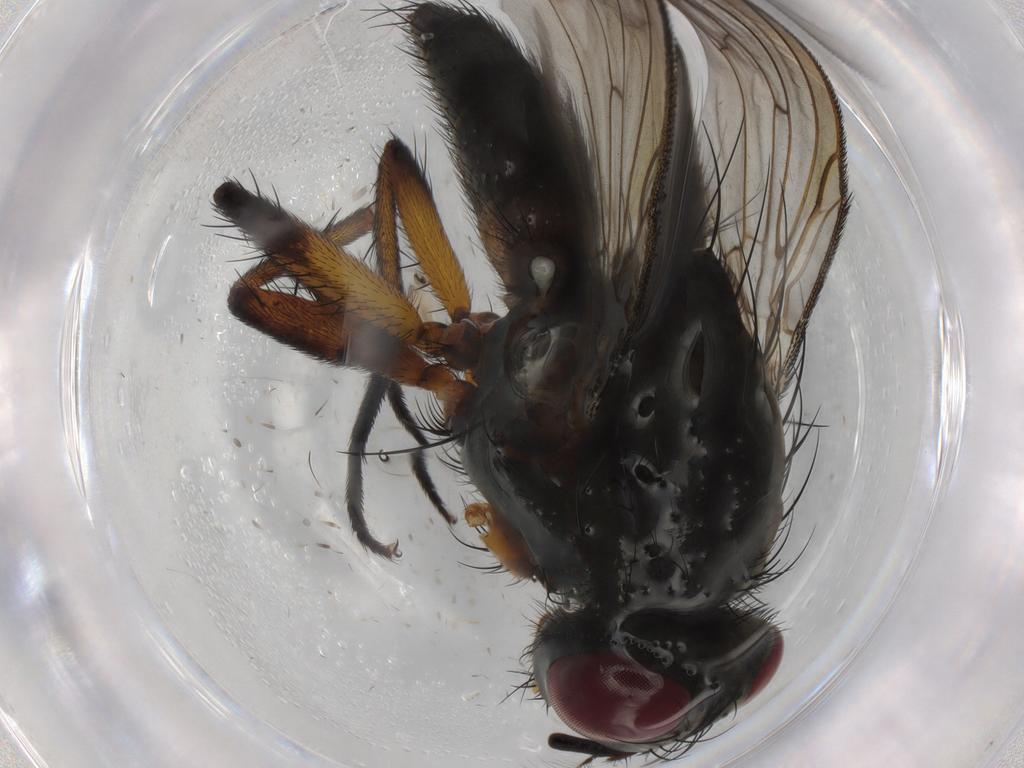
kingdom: Animalia
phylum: Arthropoda
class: Insecta
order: Diptera
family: Anthomyiidae
